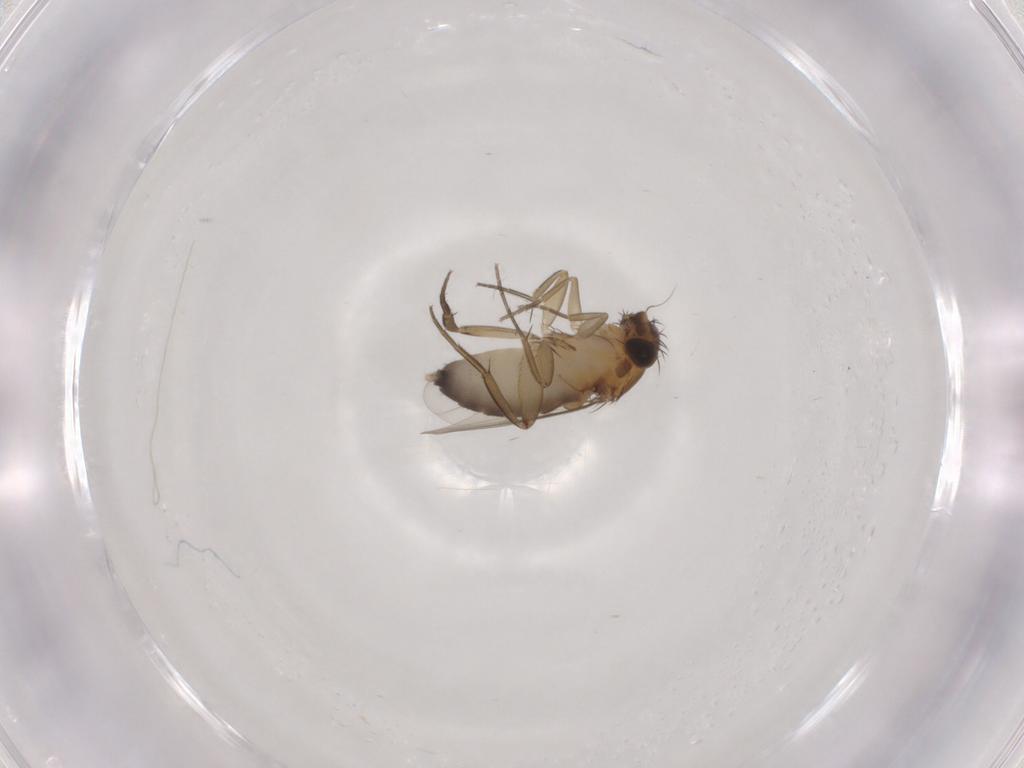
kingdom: Animalia
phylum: Arthropoda
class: Insecta
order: Diptera
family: Phoridae
